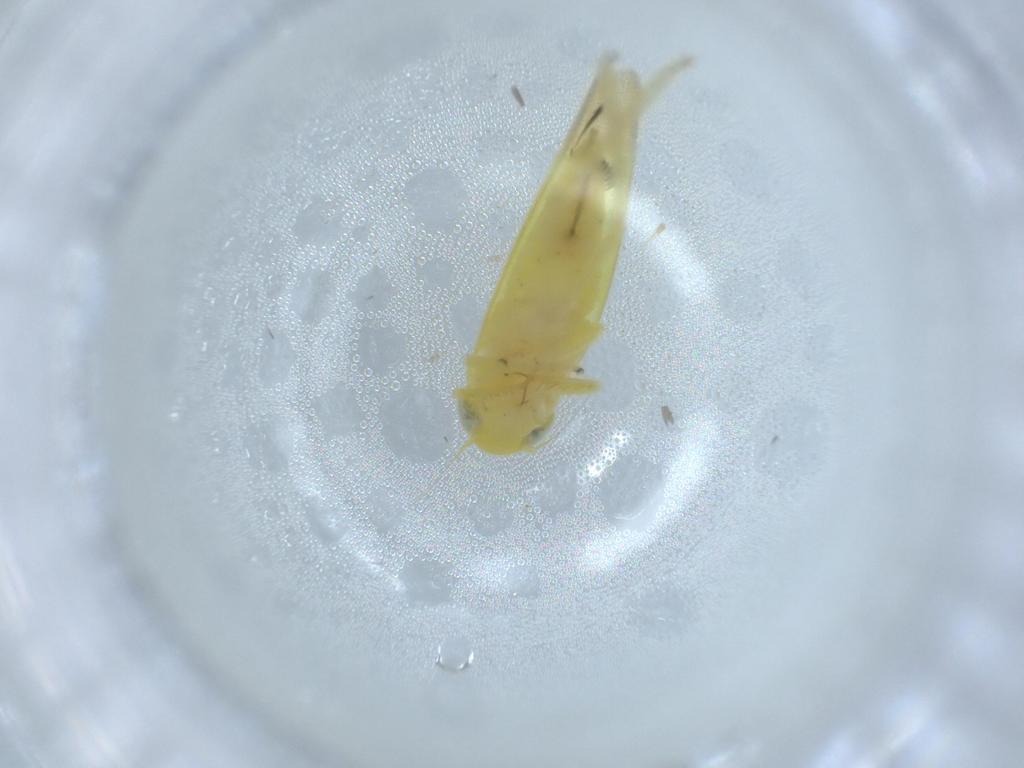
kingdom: Animalia
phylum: Arthropoda
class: Insecta
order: Hemiptera
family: Cicadellidae
